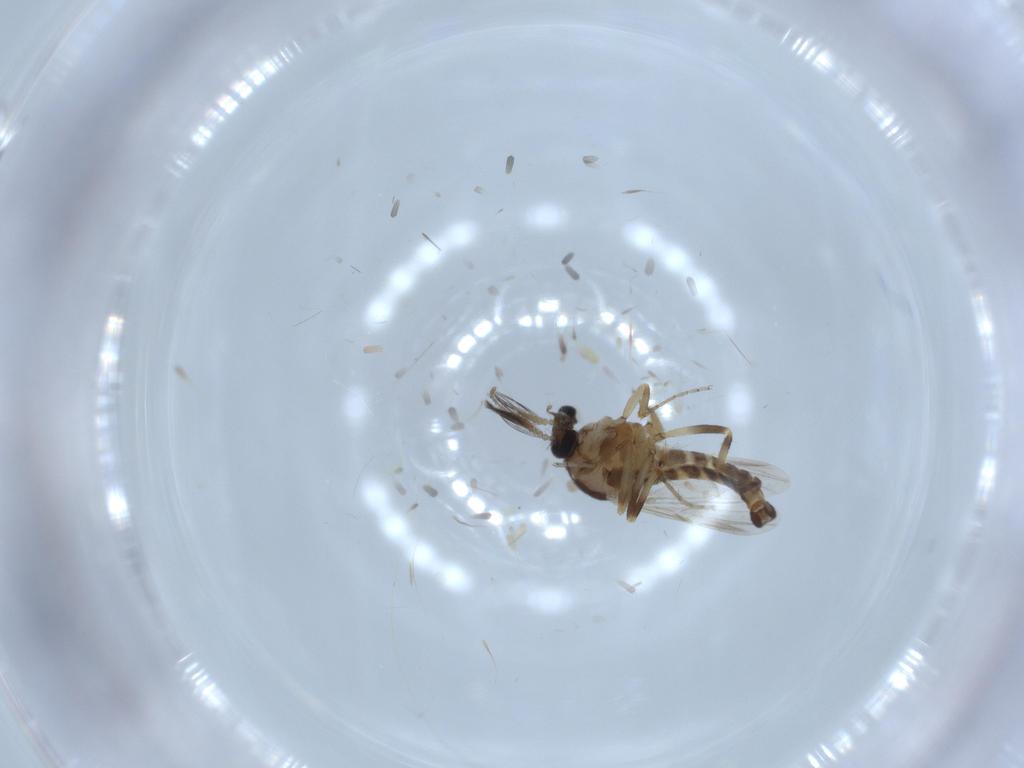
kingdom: Animalia
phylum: Arthropoda
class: Insecta
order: Diptera
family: Ceratopogonidae
